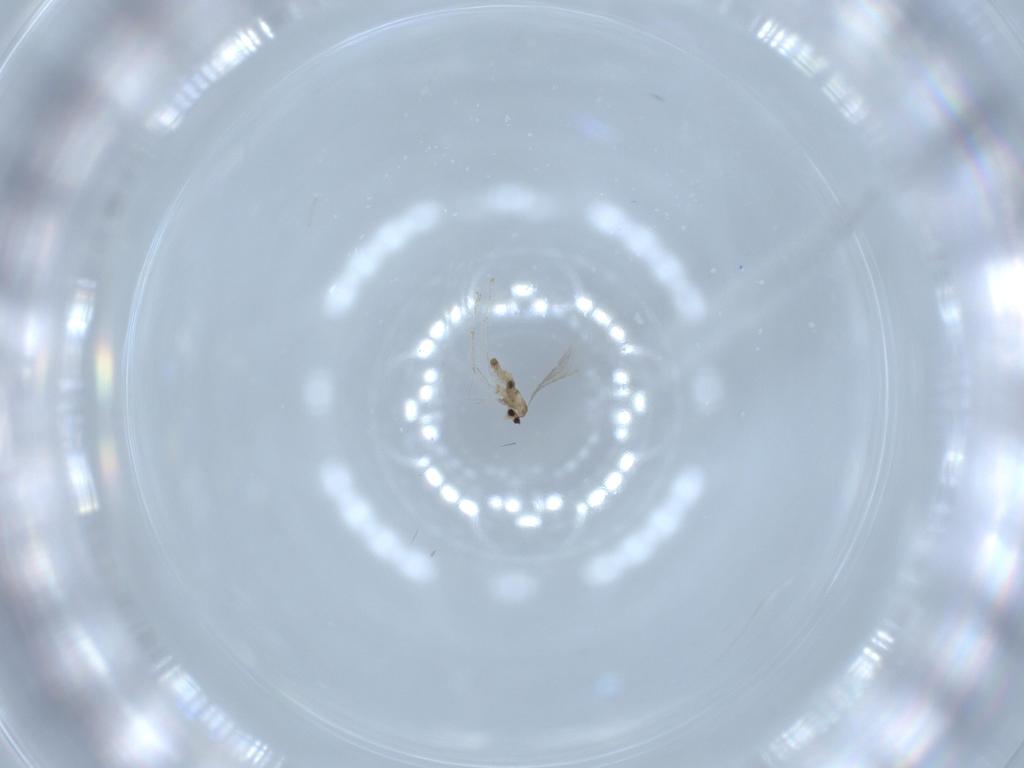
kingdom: Animalia
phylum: Arthropoda
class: Insecta
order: Diptera
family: Cecidomyiidae
